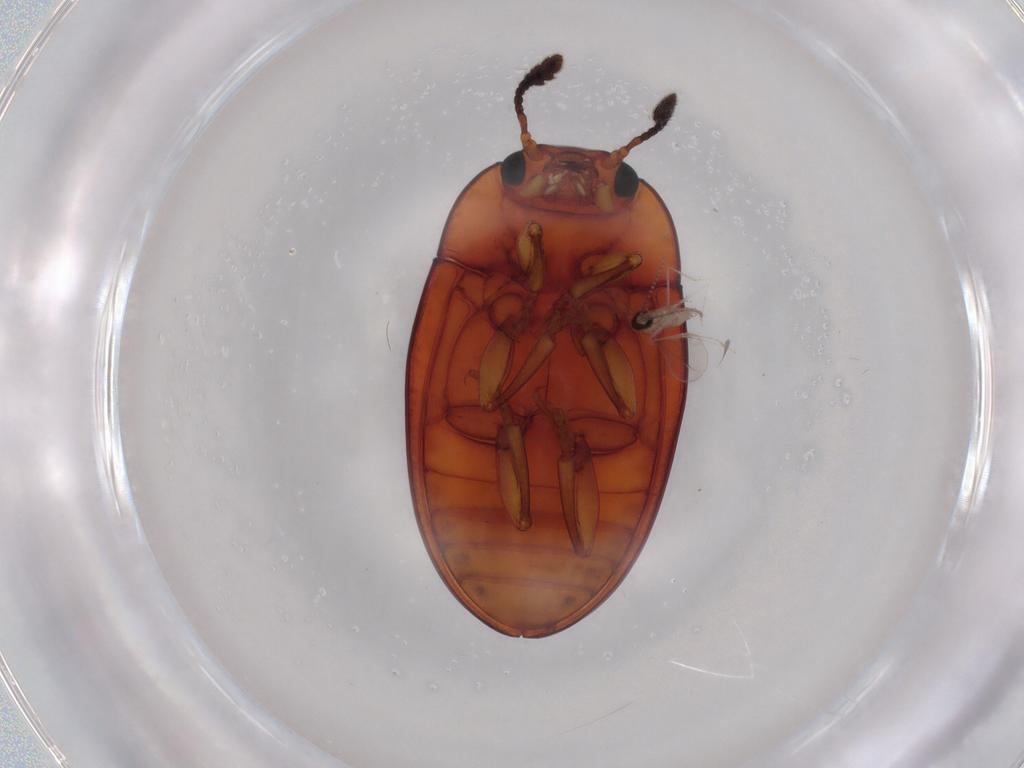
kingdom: Animalia
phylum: Arthropoda
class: Insecta
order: Coleoptera
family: Erotylidae
